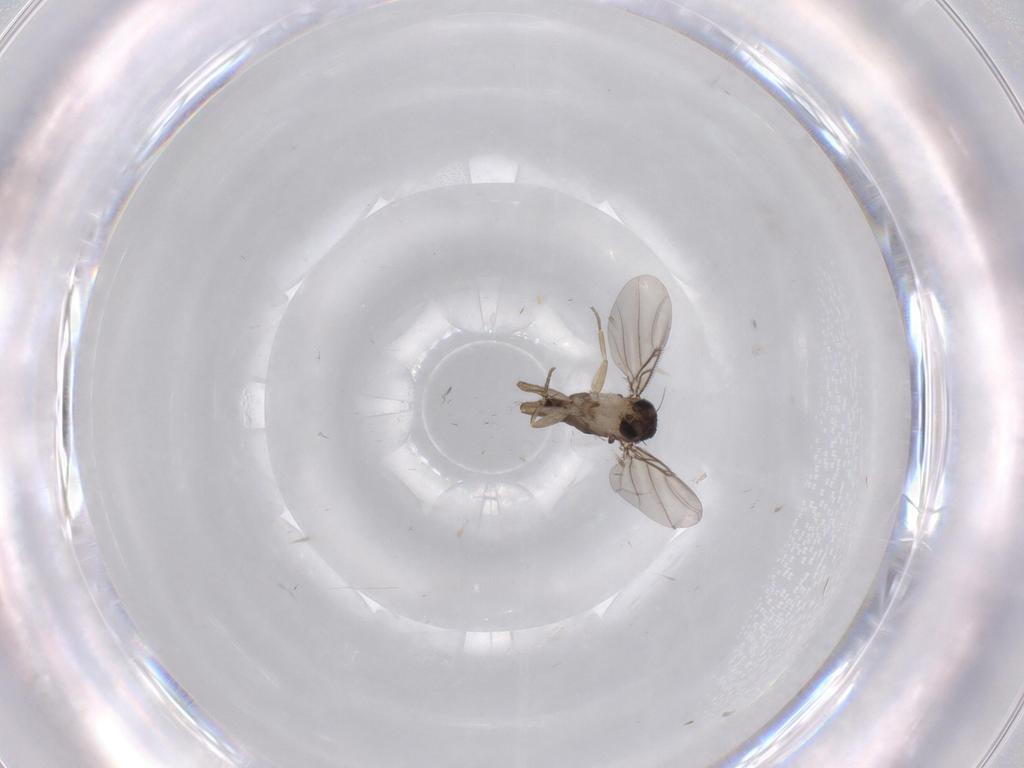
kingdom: Animalia
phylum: Arthropoda
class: Insecta
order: Diptera
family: Phoridae
